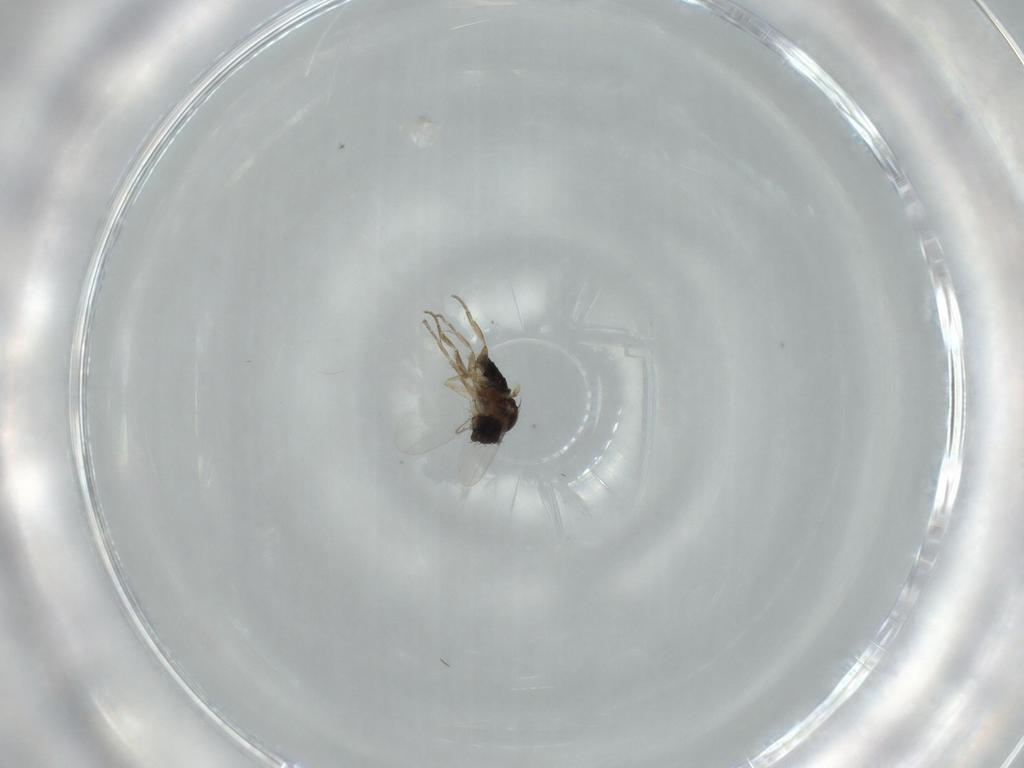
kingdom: Animalia
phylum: Arthropoda
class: Insecta
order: Diptera
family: Phoridae
